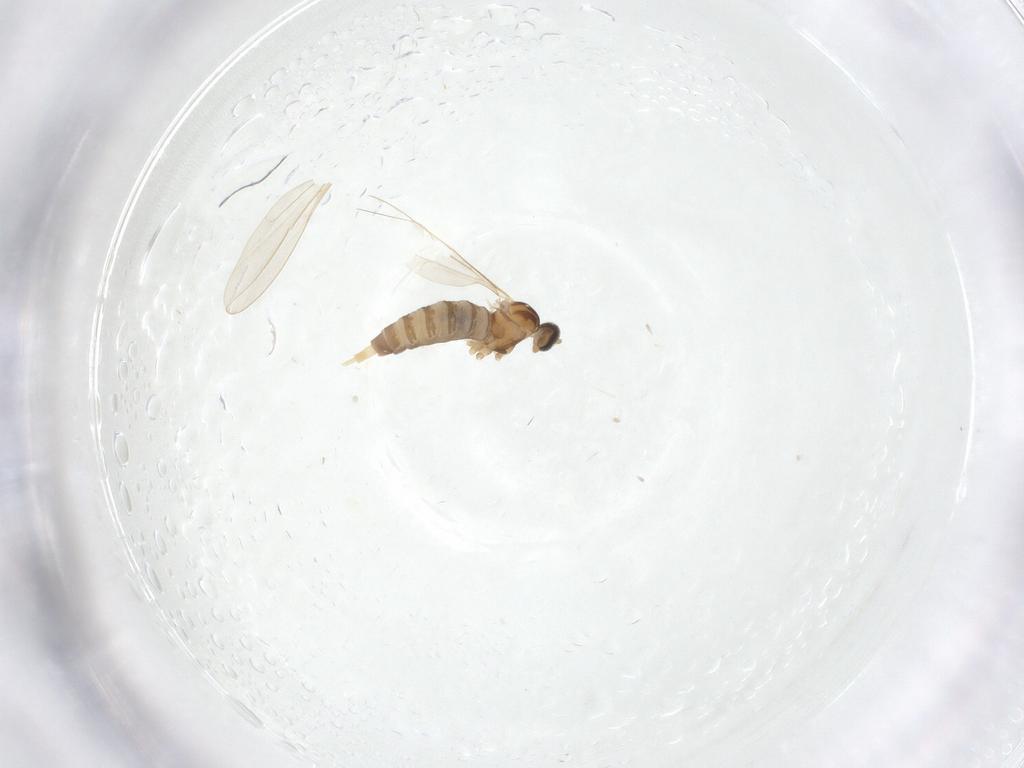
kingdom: Animalia
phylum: Arthropoda
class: Insecta
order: Diptera
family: Cecidomyiidae
